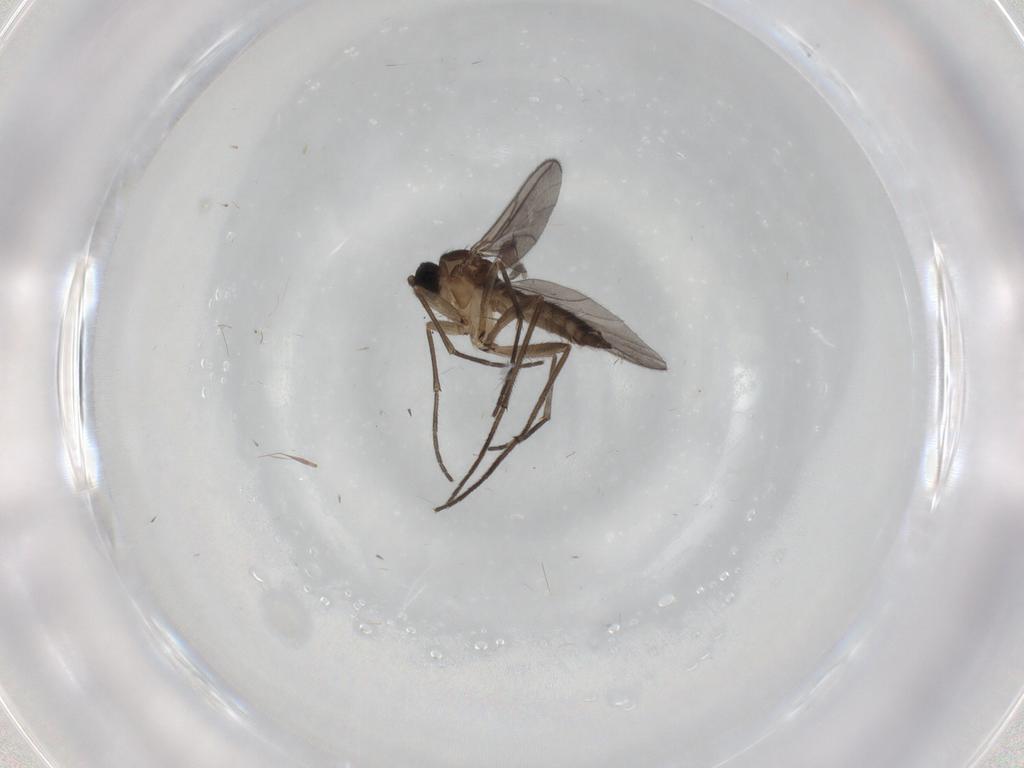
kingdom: Animalia
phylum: Arthropoda
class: Insecta
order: Diptera
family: Sciaridae
